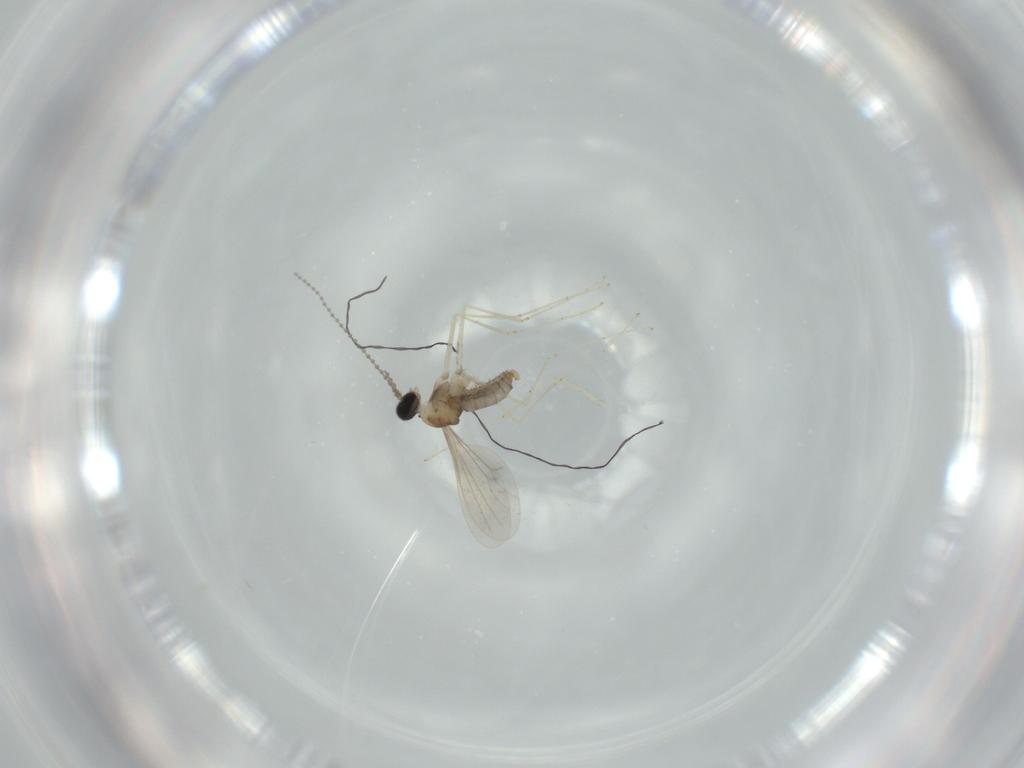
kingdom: Animalia
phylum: Arthropoda
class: Insecta
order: Diptera
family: Cecidomyiidae
